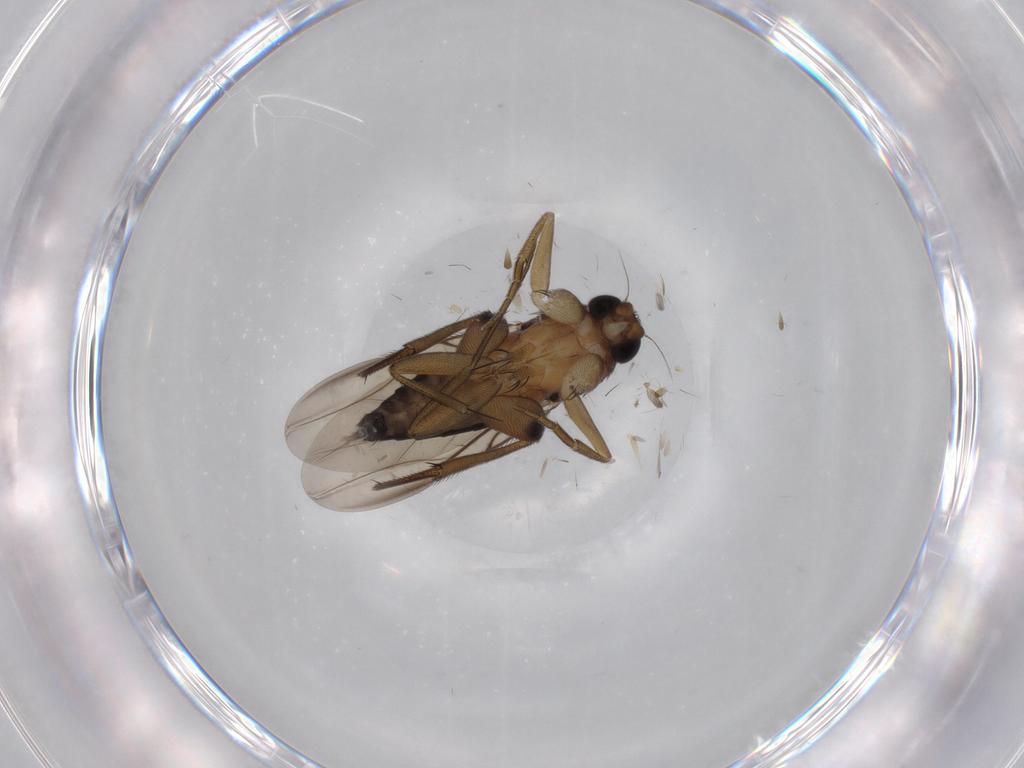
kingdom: Animalia
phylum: Arthropoda
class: Insecta
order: Diptera
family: Phoridae
